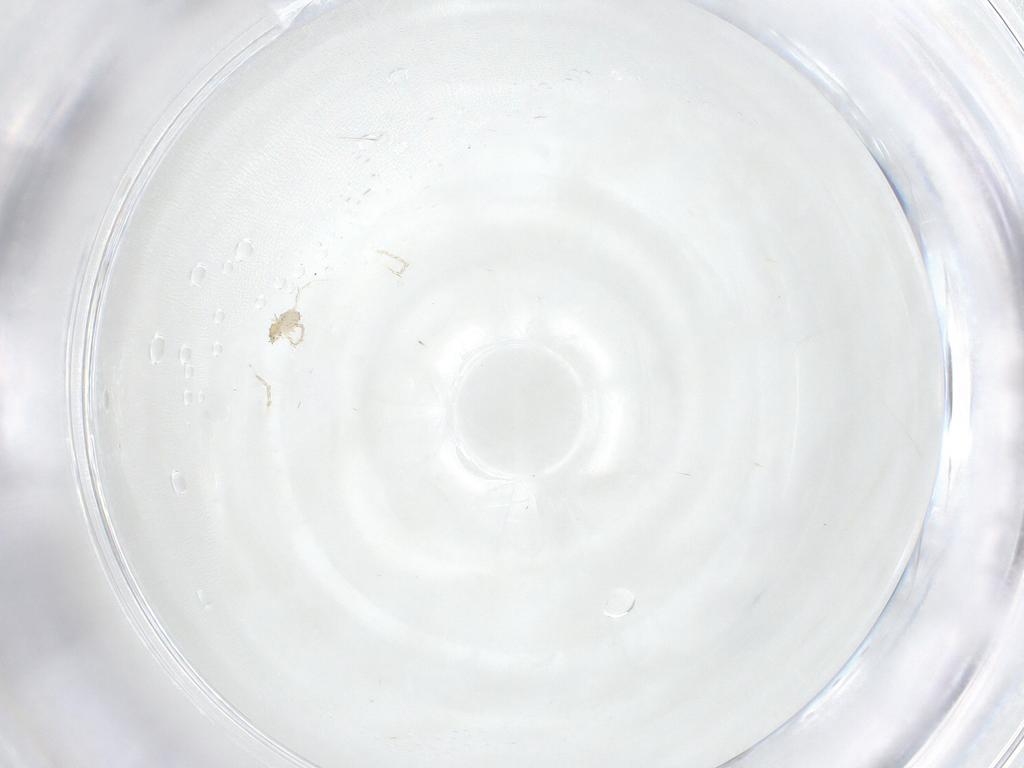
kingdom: Animalia
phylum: Arthropoda
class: Arachnida
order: Trombidiformes
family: Erythraeidae
